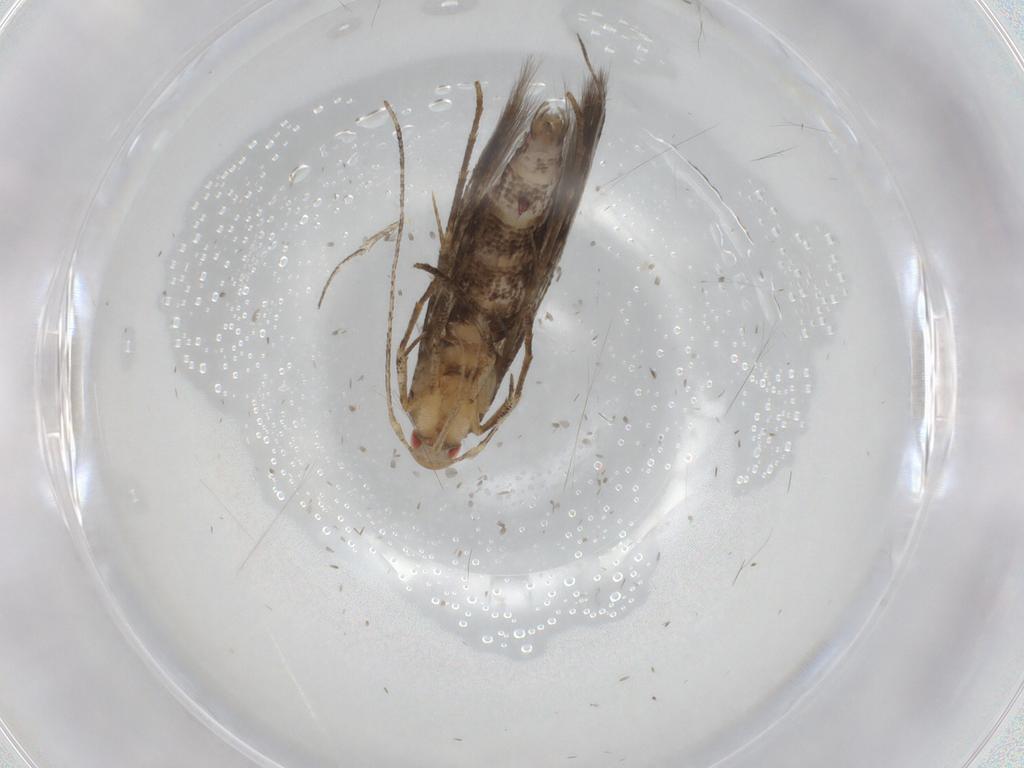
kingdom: Animalia
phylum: Arthropoda
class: Insecta
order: Lepidoptera
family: Cosmopterigidae
